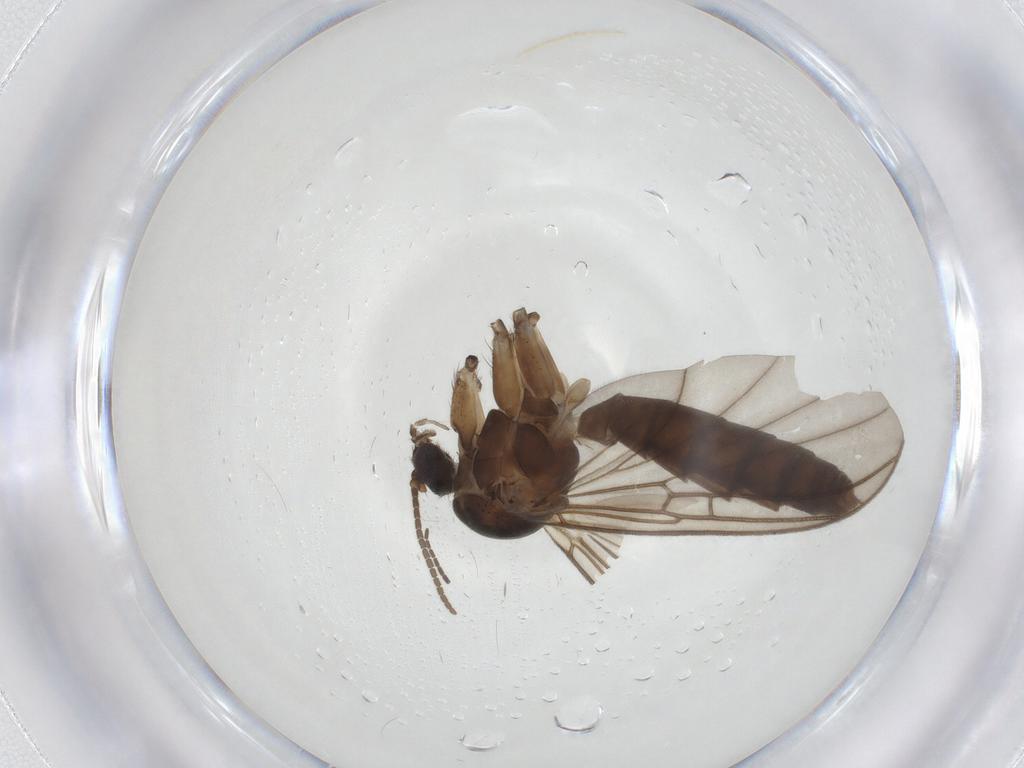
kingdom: Animalia
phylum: Arthropoda
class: Insecta
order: Diptera
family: Sciaridae
